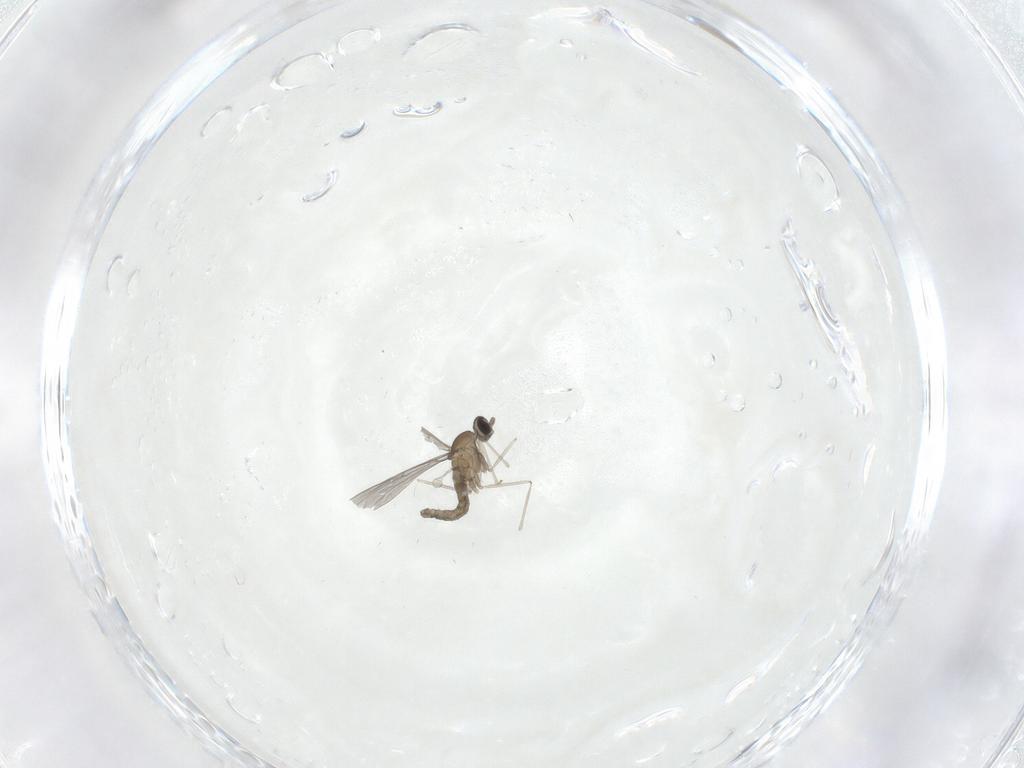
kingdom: Animalia
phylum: Arthropoda
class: Insecta
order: Diptera
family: Cecidomyiidae
